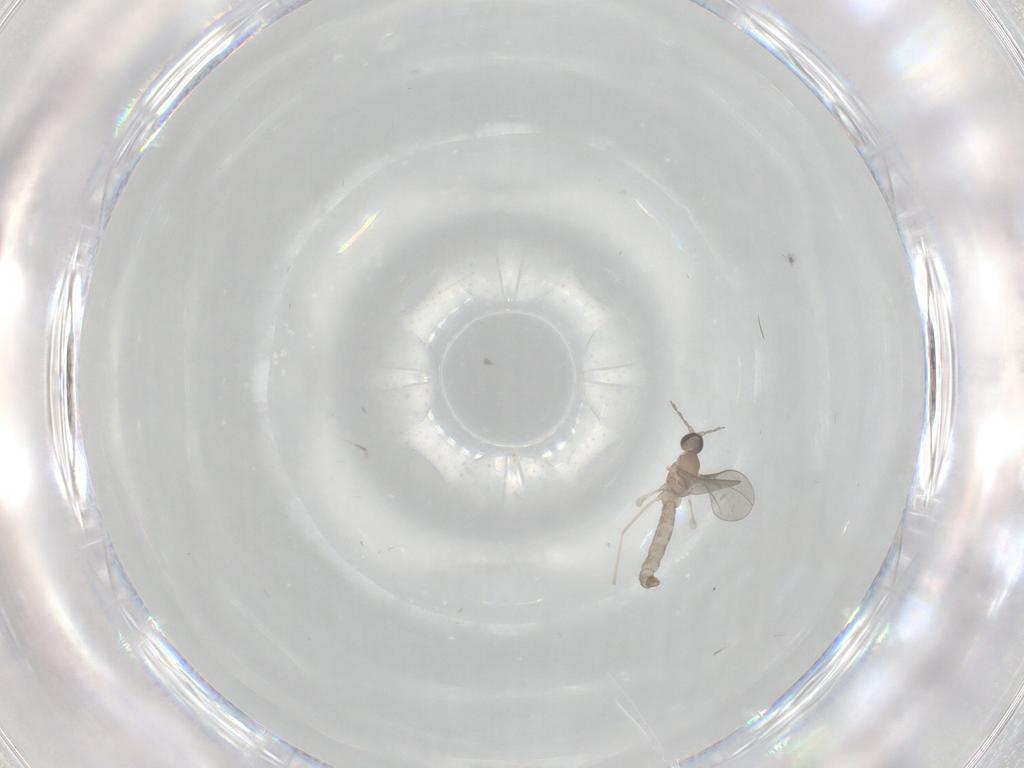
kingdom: Animalia
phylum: Arthropoda
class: Insecta
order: Diptera
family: Cecidomyiidae
